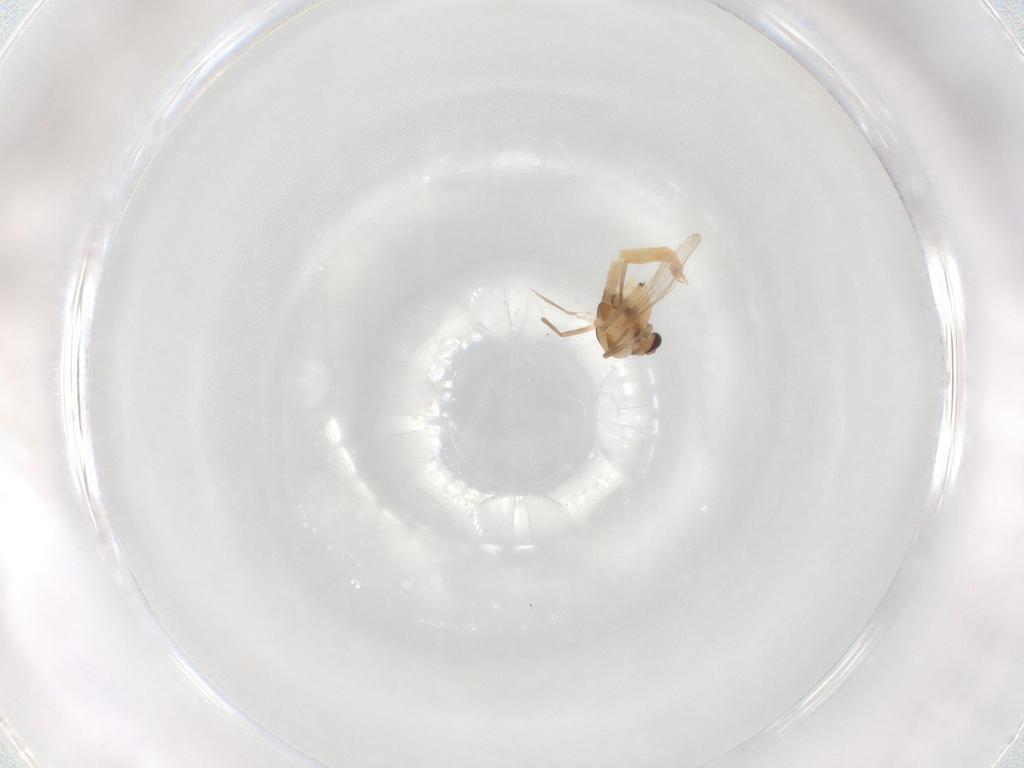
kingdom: Animalia
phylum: Arthropoda
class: Insecta
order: Diptera
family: Chironomidae
